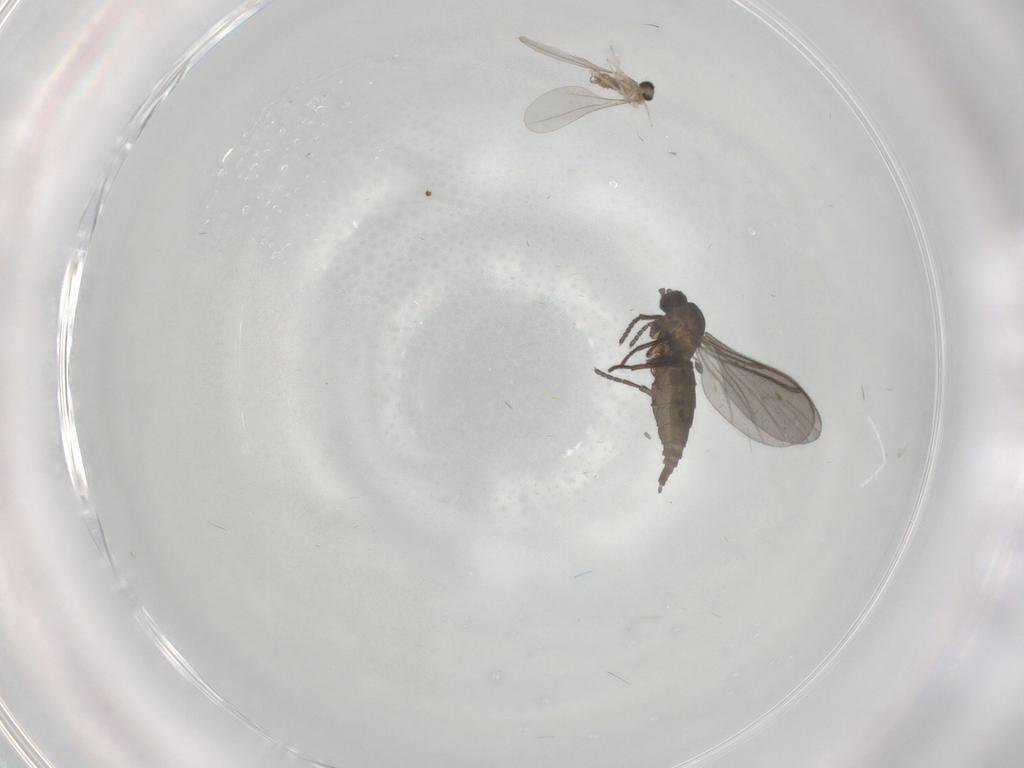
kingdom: Animalia
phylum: Arthropoda
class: Insecta
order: Diptera
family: Cecidomyiidae
